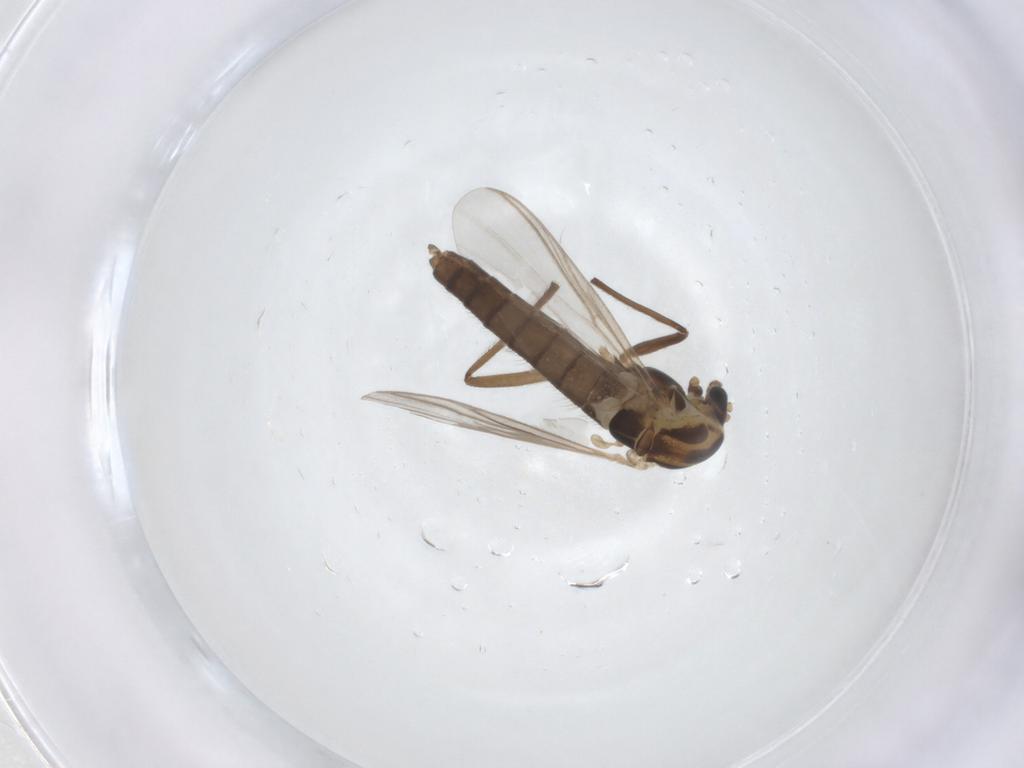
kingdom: Animalia
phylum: Arthropoda
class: Insecta
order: Diptera
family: Chironomidae
